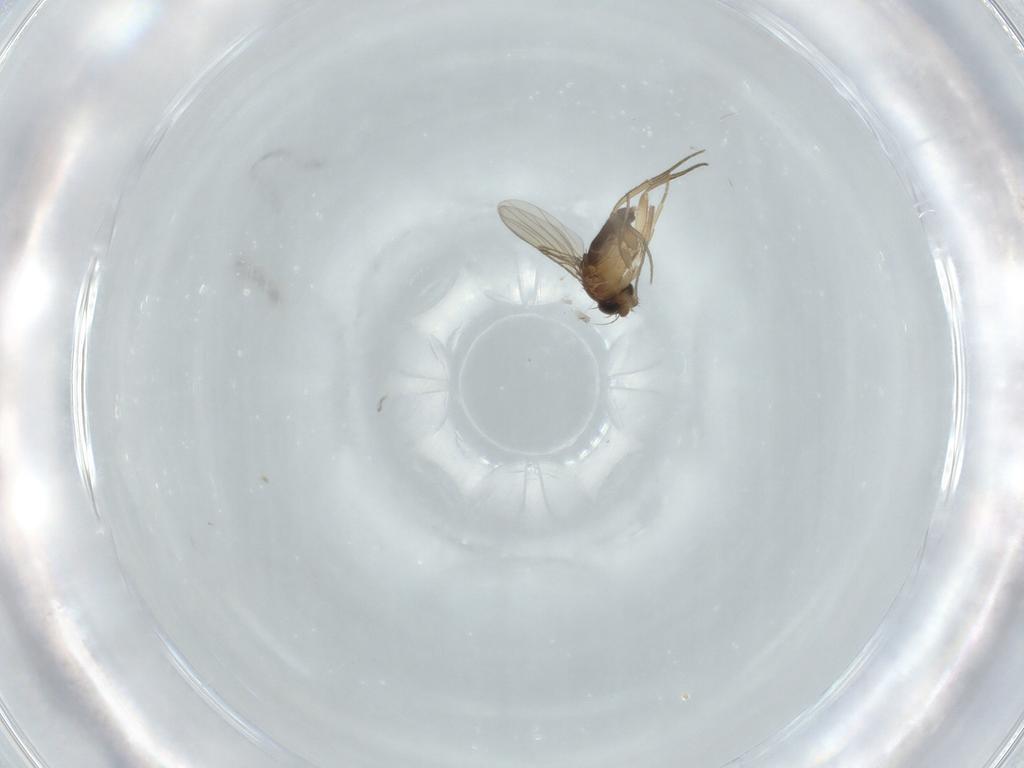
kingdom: Animalia
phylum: Arthropoda
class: Insecta
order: Diptera
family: Phoridae
